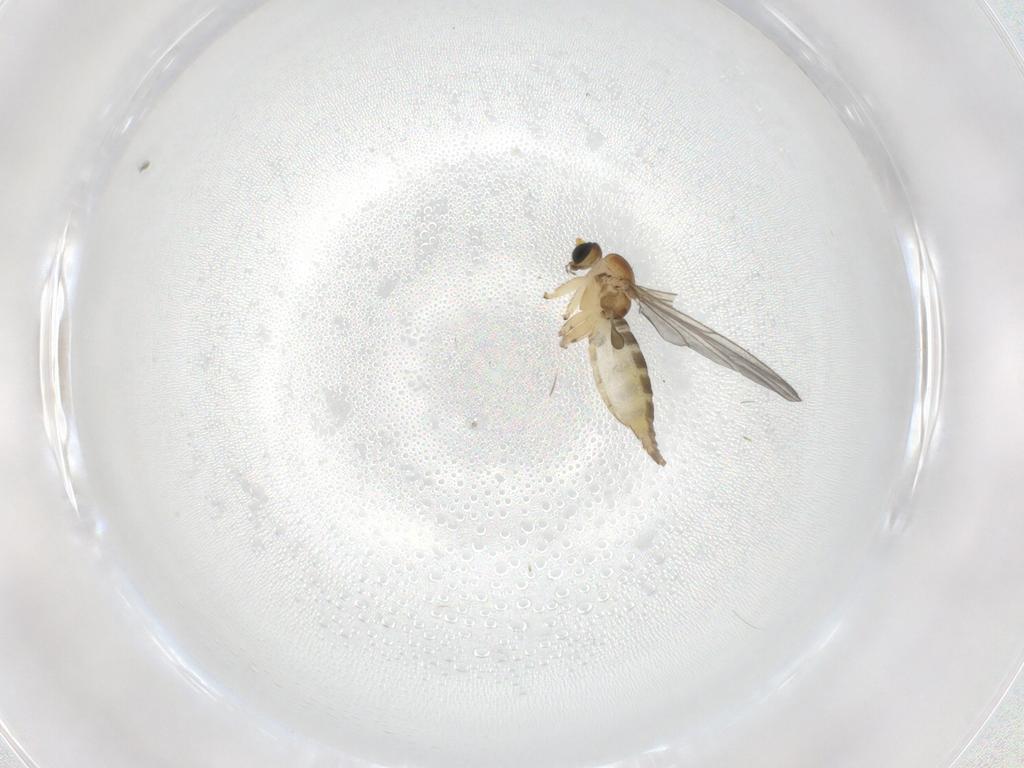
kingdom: Animalia
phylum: Arthropoda
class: Insecta
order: Diptera
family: Sciaridae
